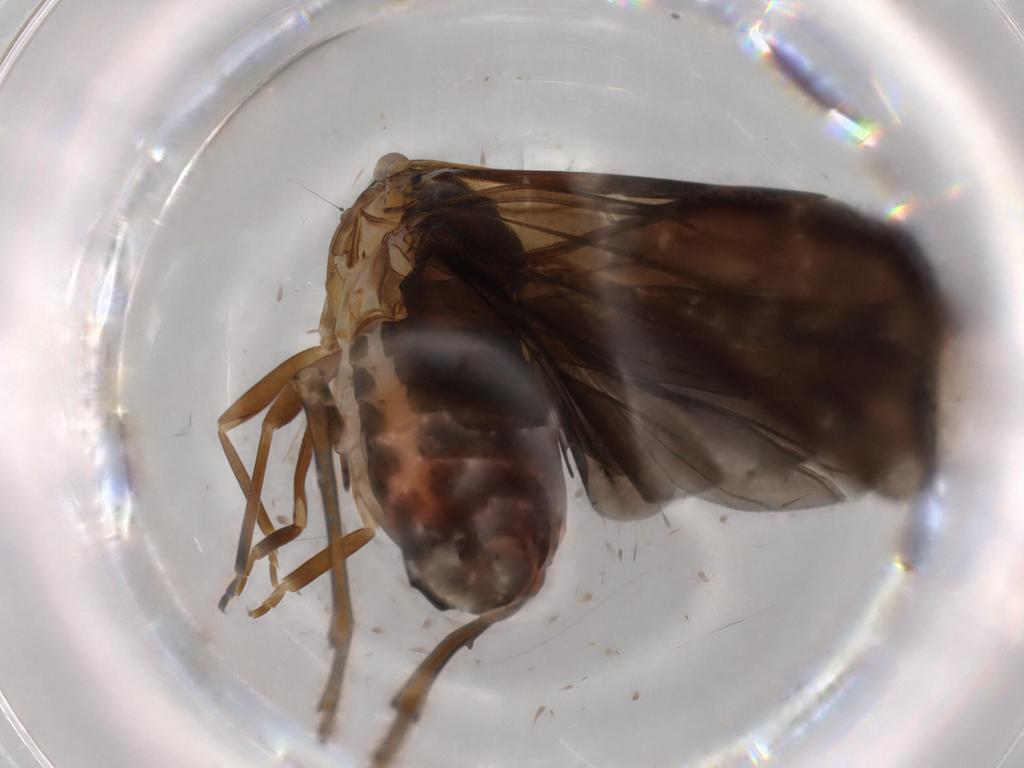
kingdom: Animalia
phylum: Arthropoda
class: Insecta
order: Hemiptera
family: Achilidae
